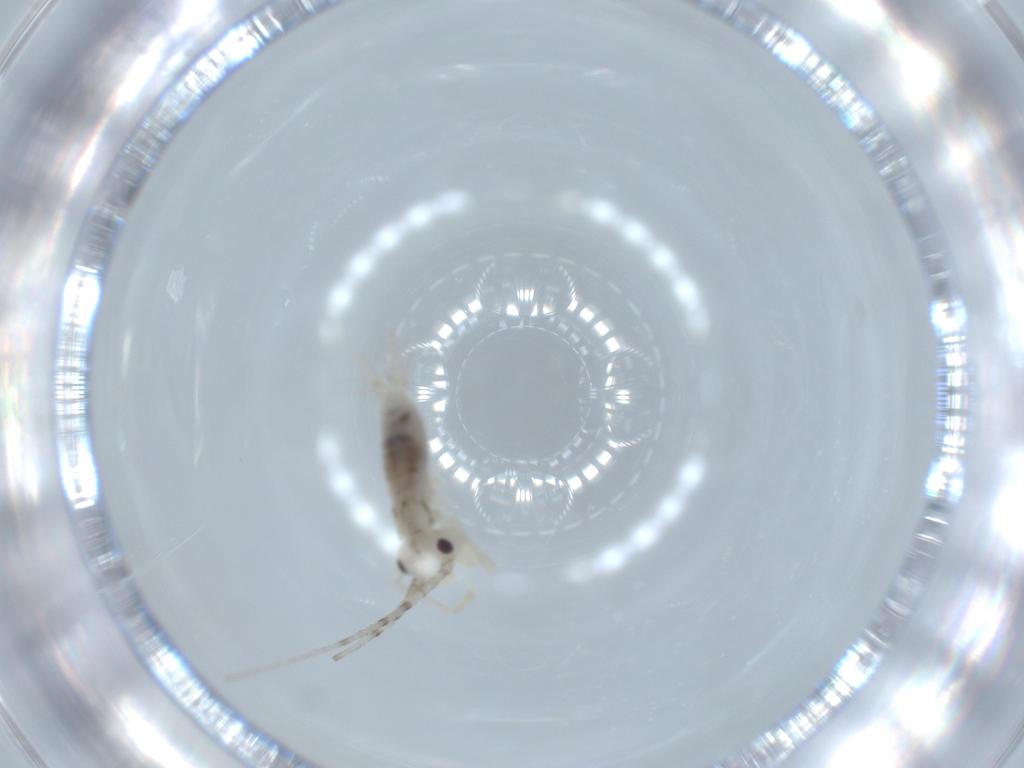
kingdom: Animalia
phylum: Arthropoda
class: Insecta
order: Orthoptera
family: Trigonidiidae
